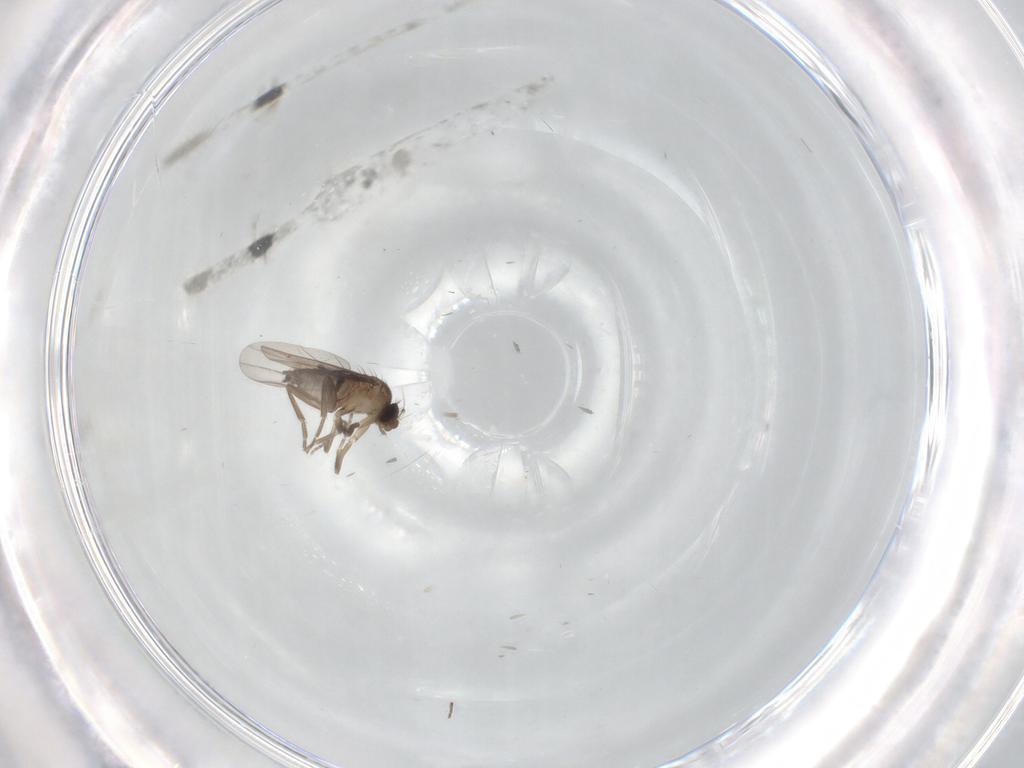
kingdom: Animalia
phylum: Arthropoda
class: Insecta
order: Diptera
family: Limoniidae
